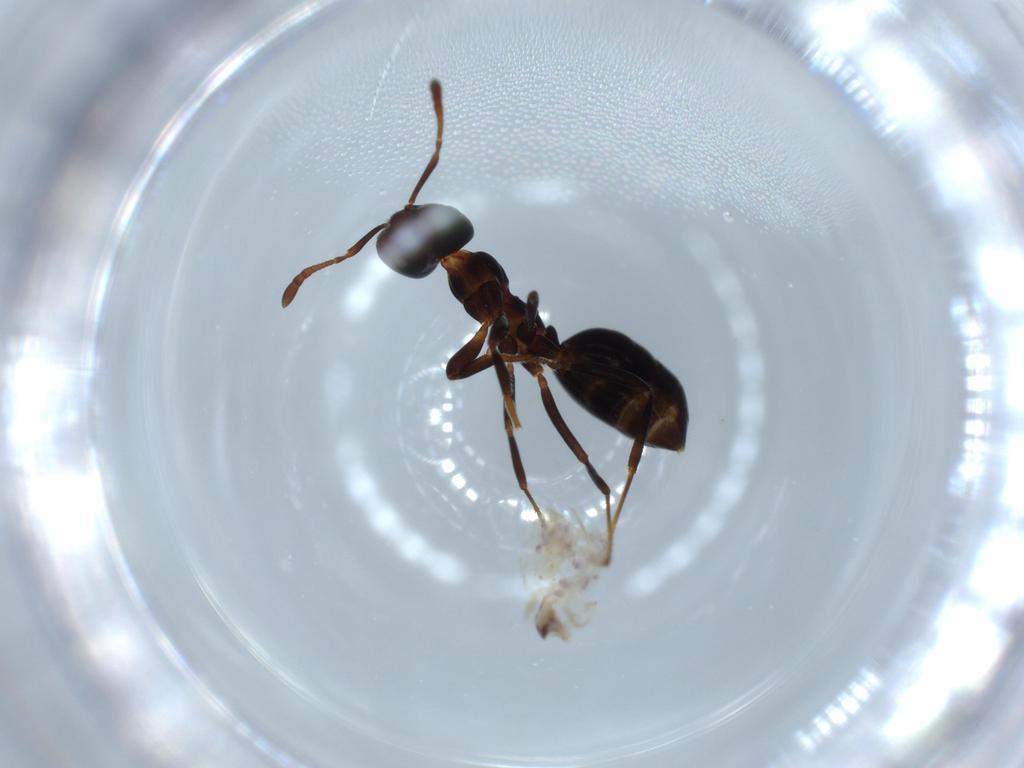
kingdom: Animalia
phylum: Arthropoda
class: Insecta
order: Hymenoptera
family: Formicidae
